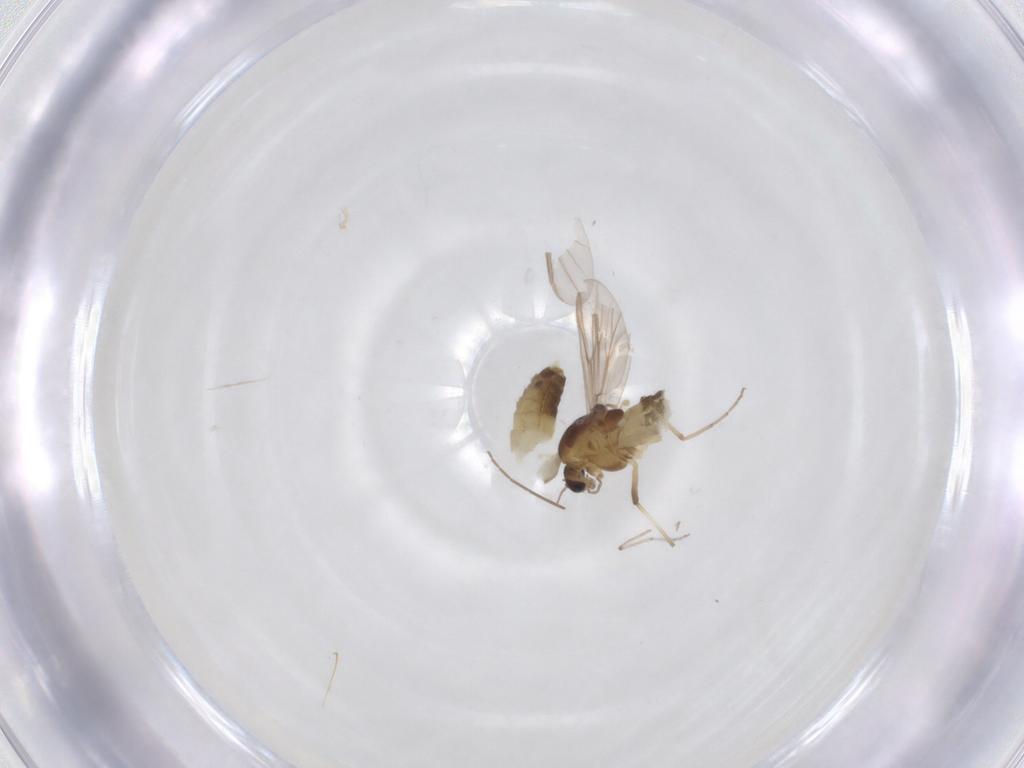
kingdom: Animalia
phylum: Arthropoda
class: Insecta
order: Diptera
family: Chironomidae
